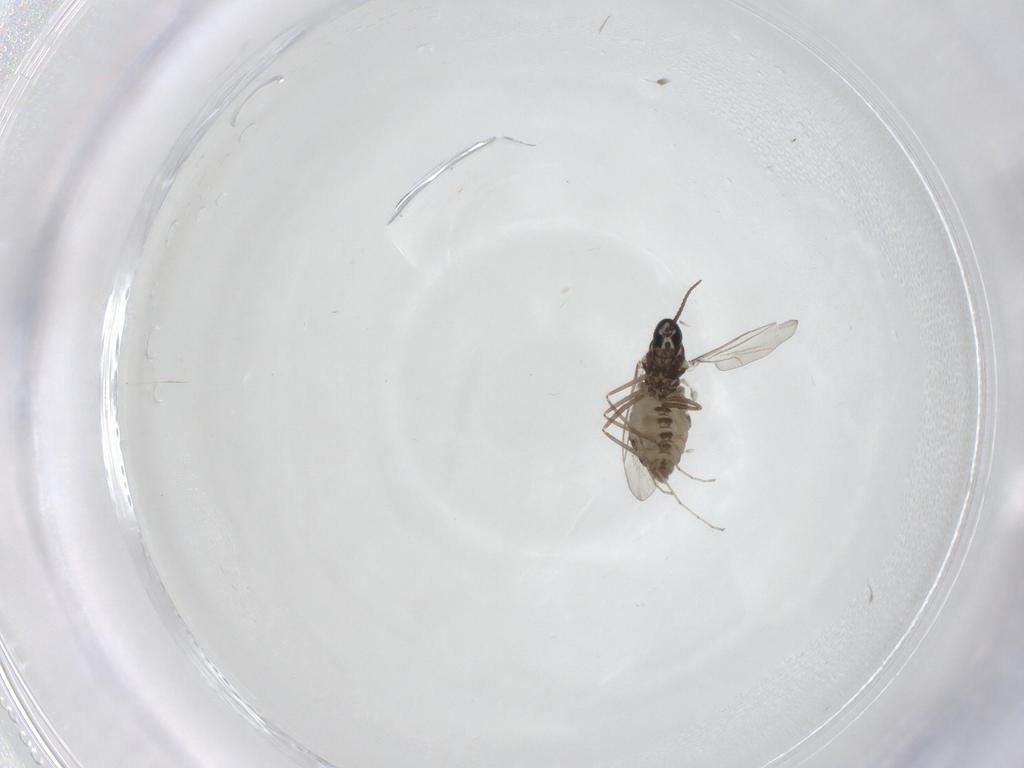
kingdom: Animalia
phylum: Arthropoda
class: Insecta
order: Diptera
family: Cecidomyiidae
